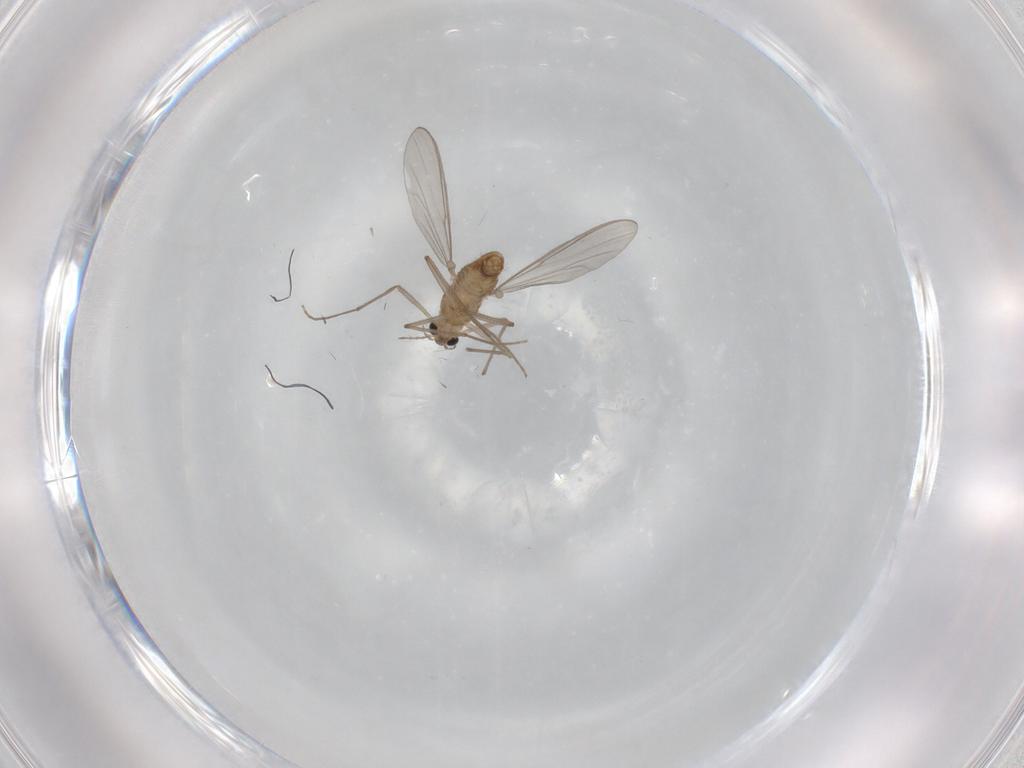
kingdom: Animalia
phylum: Arthropoda
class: Insecta
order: Diptera
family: Chironomidae
